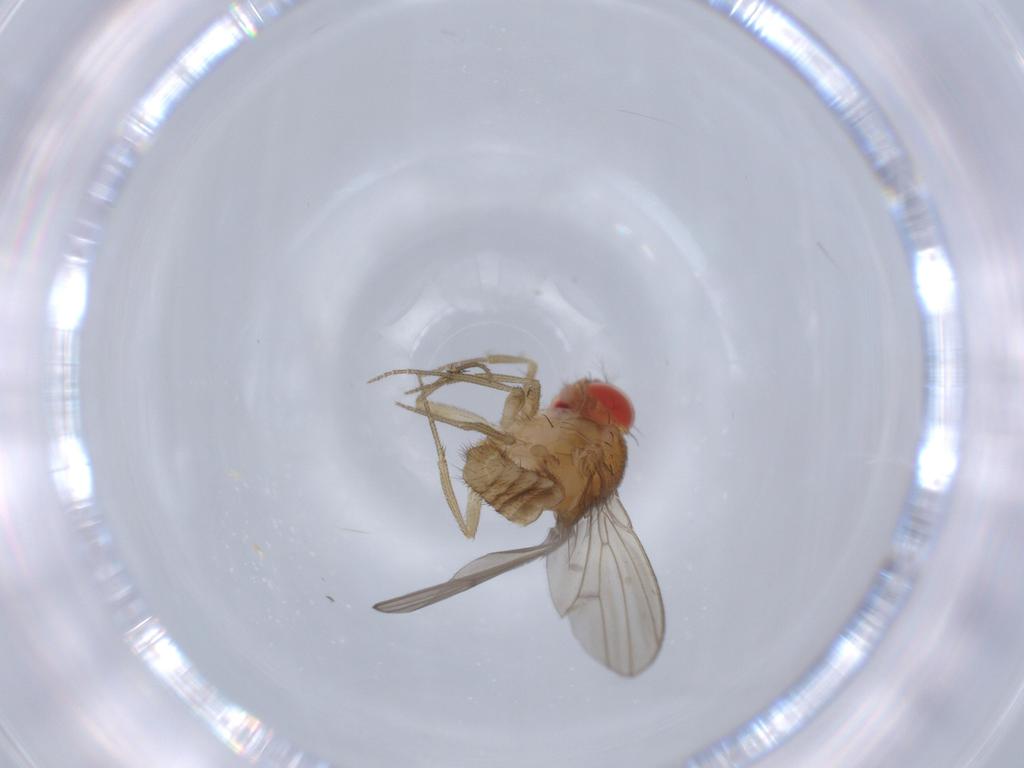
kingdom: Animalia
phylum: Arthropoda
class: Insecta
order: Diptera
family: Drosophilidae
